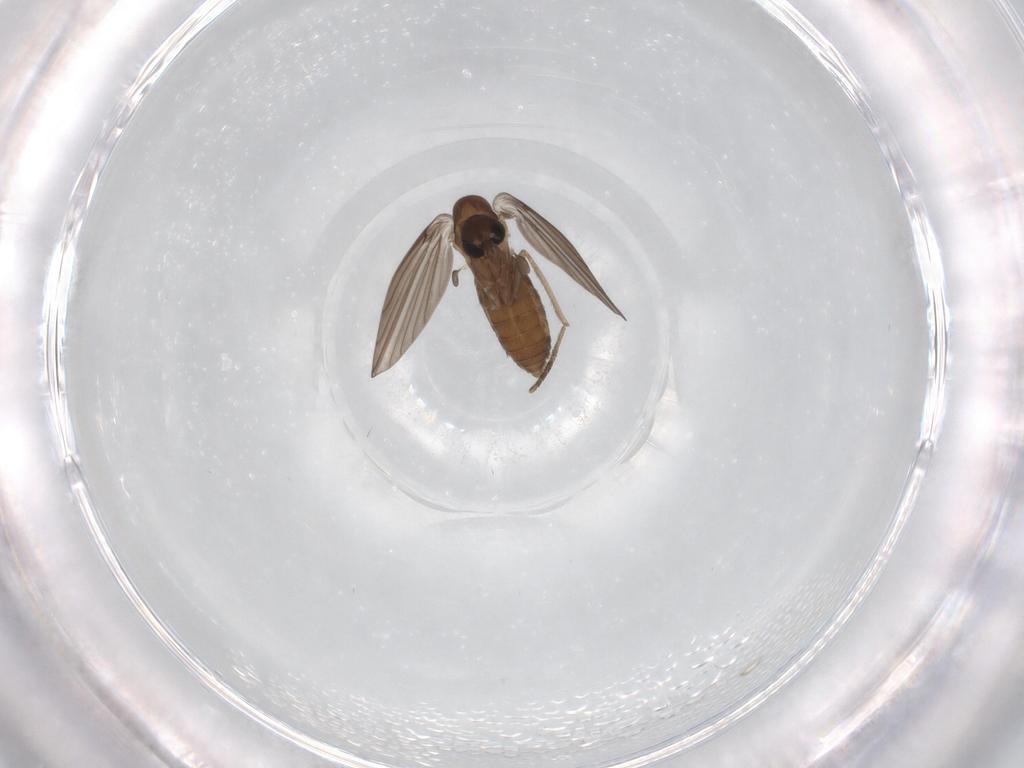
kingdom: Animalia
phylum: Arthropoda
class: Insecta
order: Diptera
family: Psychodidae
